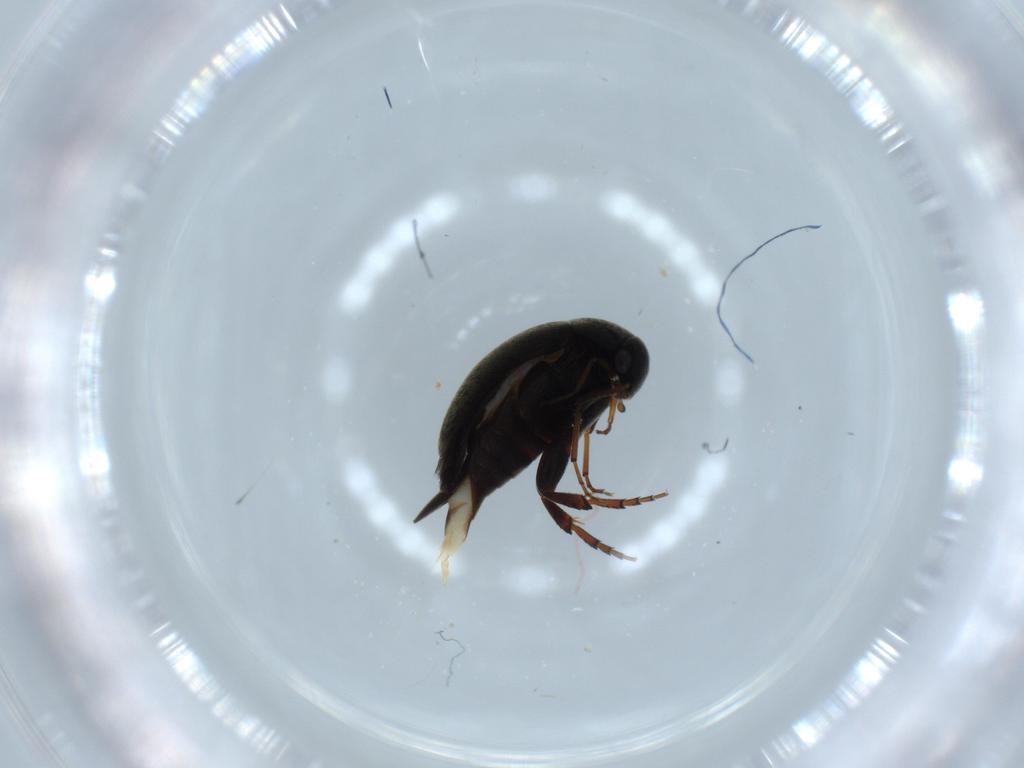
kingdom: Animalia
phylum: Arthropoda
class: Insecta
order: Coleoptera
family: Mordellidae
